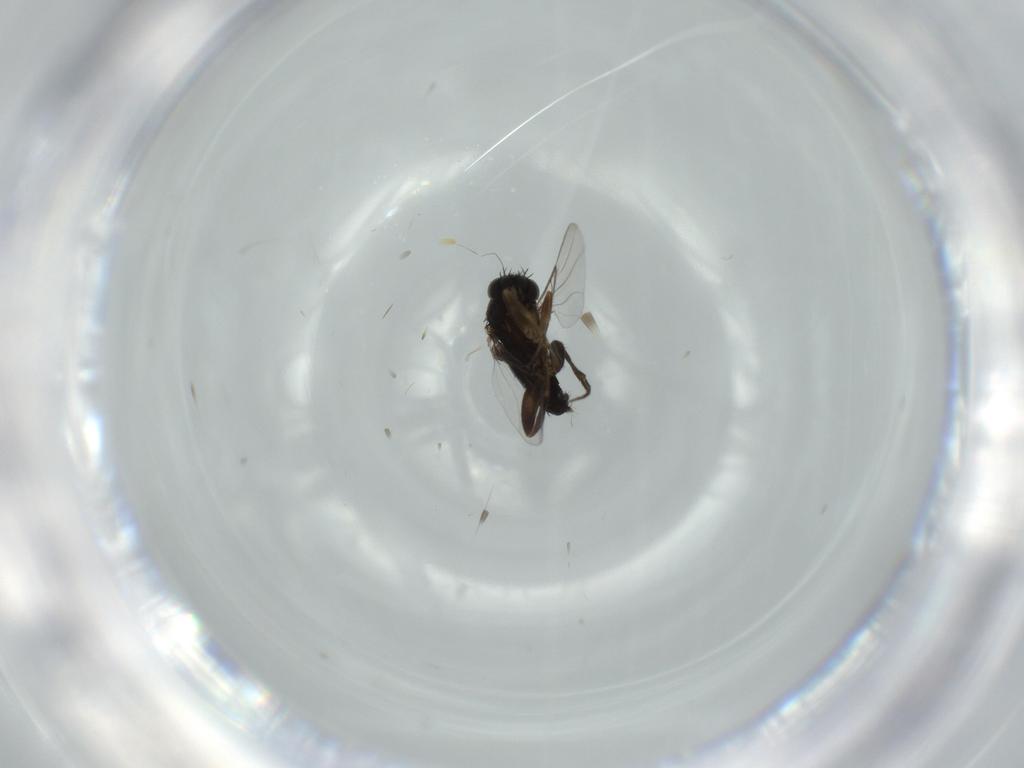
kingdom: Animalia
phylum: Arthropoda
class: Insecta
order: Diptera
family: Phoridae
